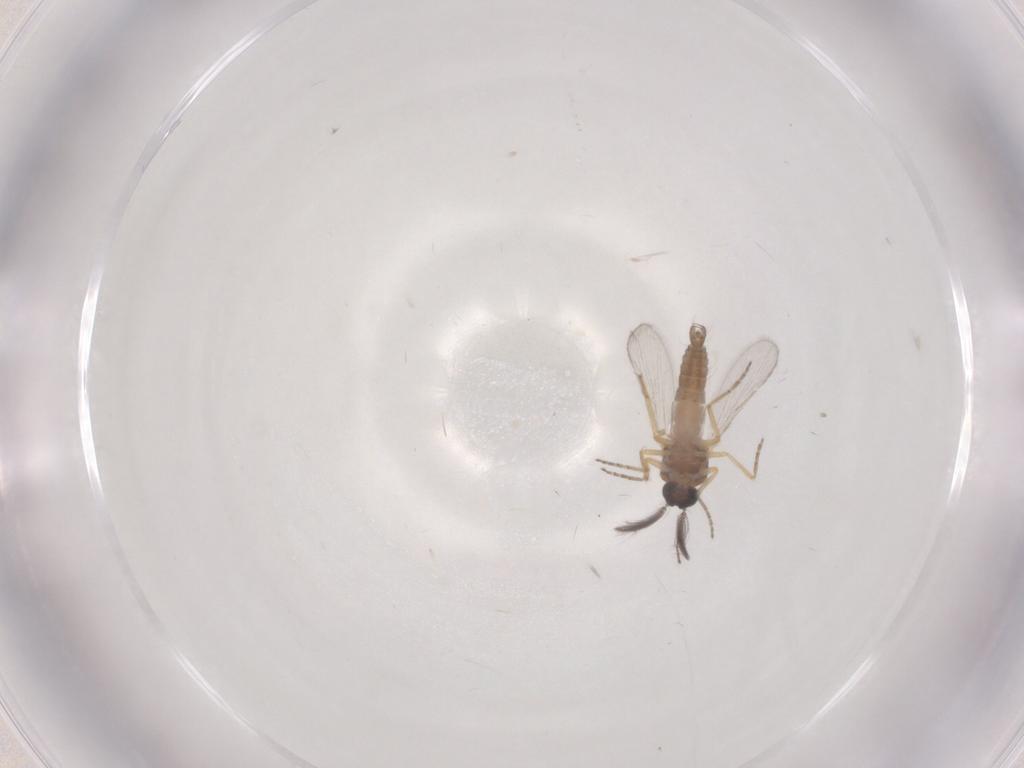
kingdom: Animalia
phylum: Arthropoda
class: Insecta
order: Diptera
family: Ceratopogonidae
